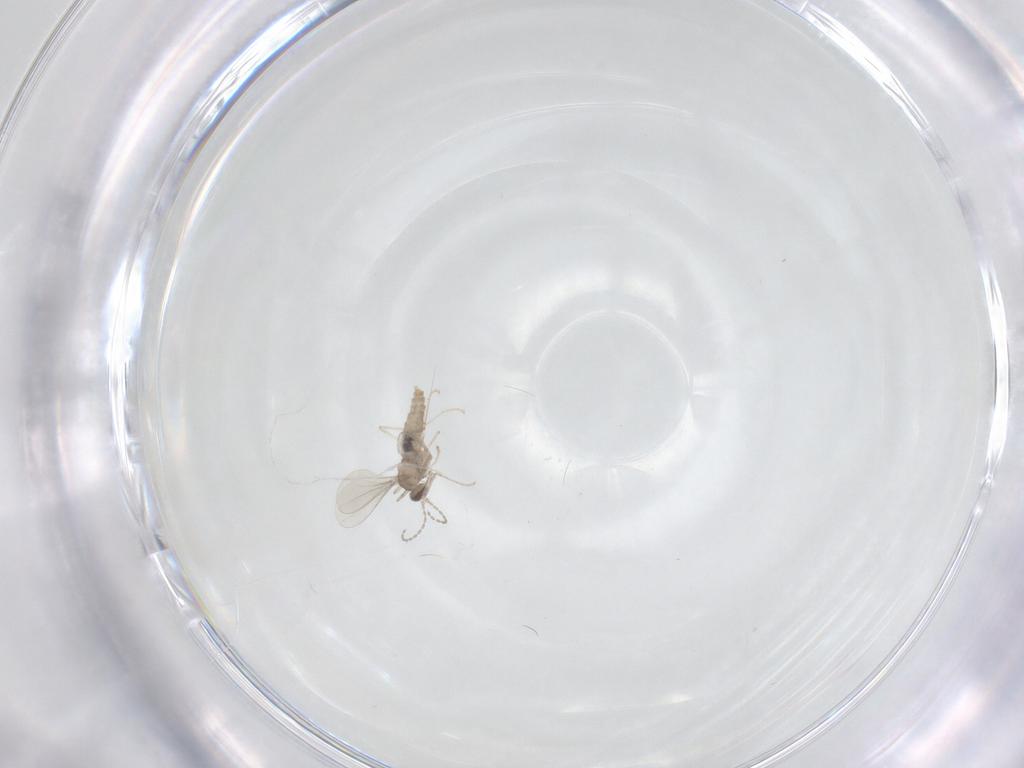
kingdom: Animalia
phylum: Arthropoda
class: Insecta
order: Diptera
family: Cecidomyiidae
